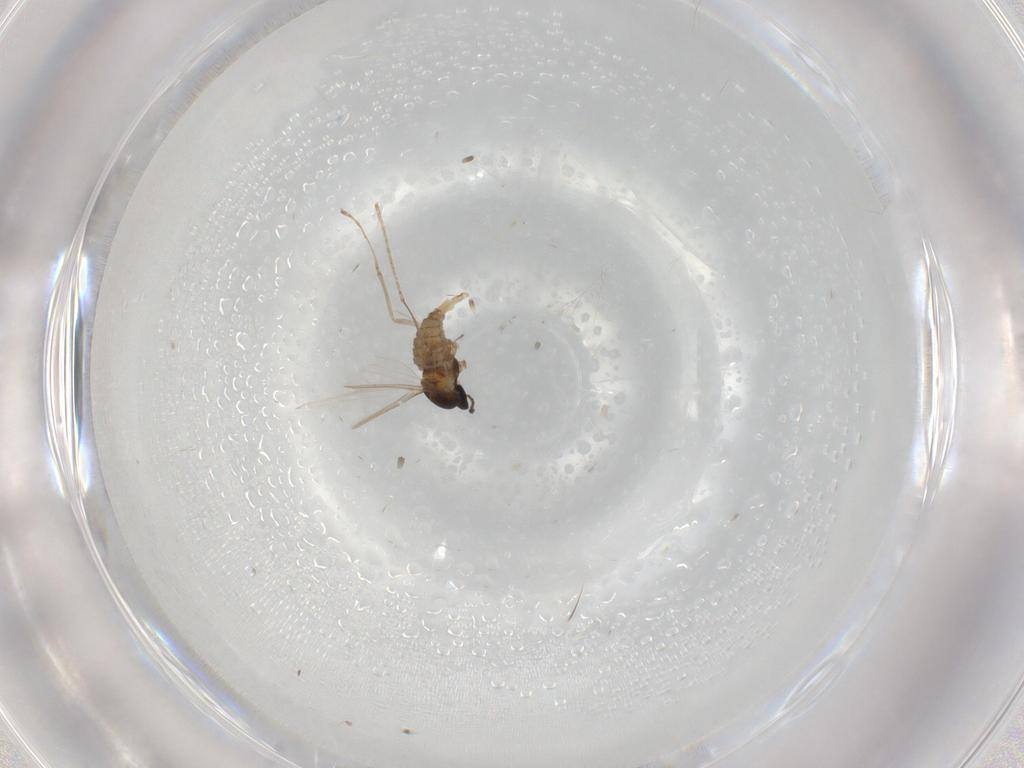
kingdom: Animalia
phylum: Arthropoda
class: Insecta
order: Diptera
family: Cecidomyiidae
